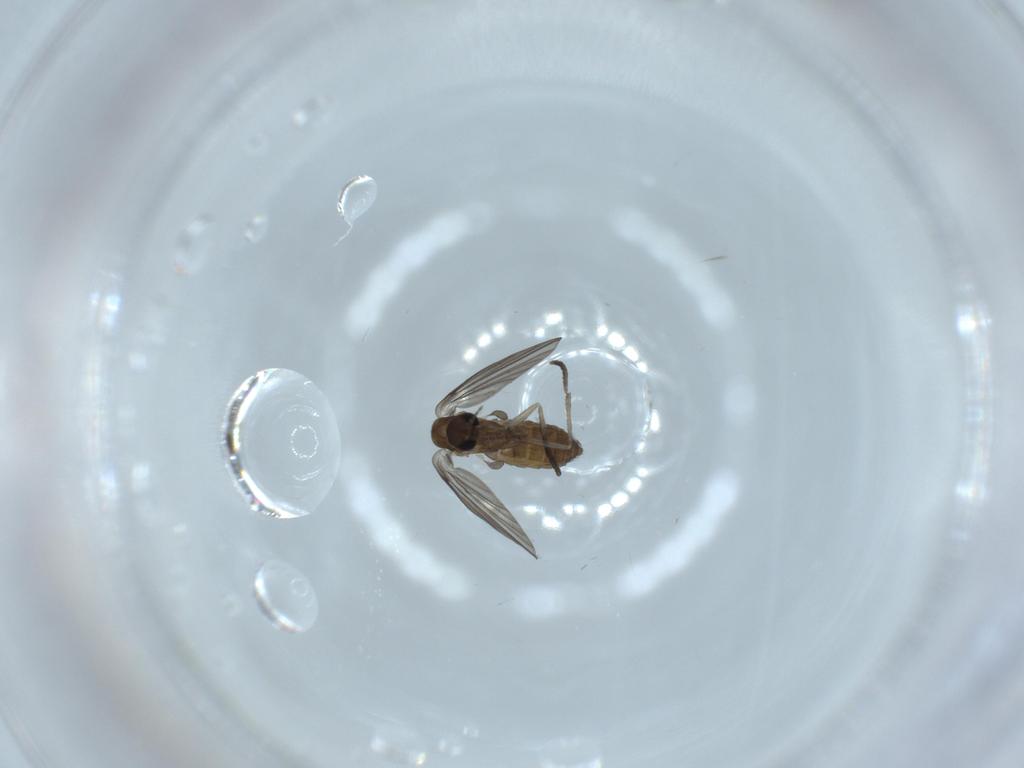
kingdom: Animalia
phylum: Arthropoda
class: Insecta
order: Diptera
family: Psychodidae
